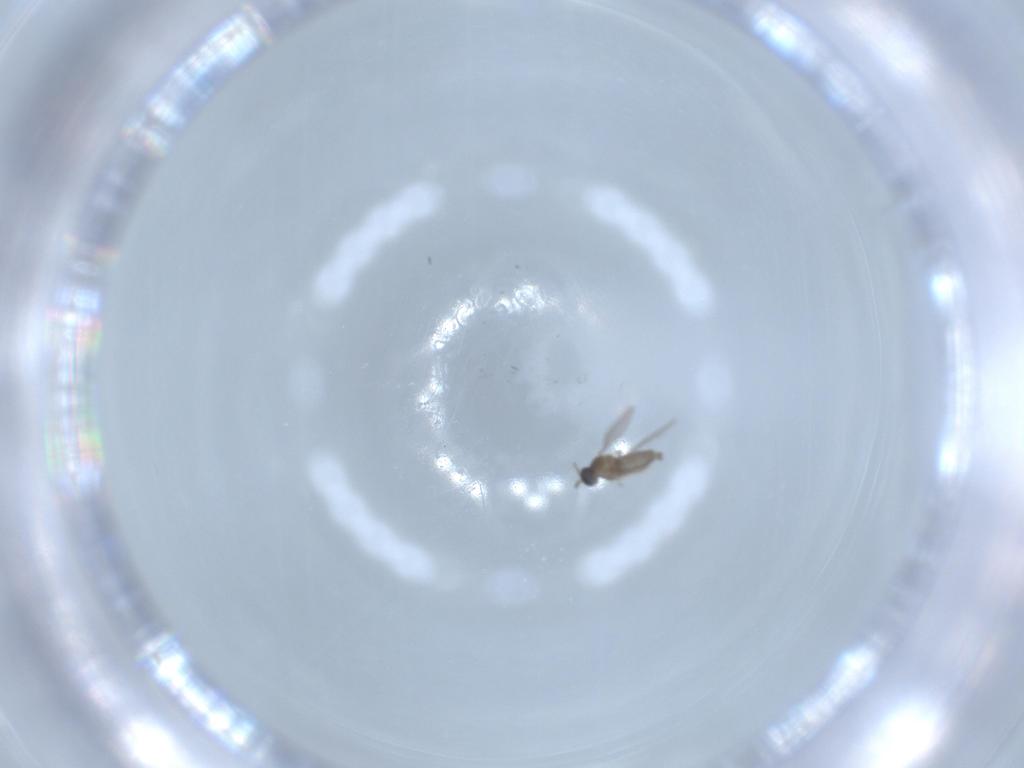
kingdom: Animalia
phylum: Arthropoda
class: Insecta
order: Diptera
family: Cecidomyiidae
